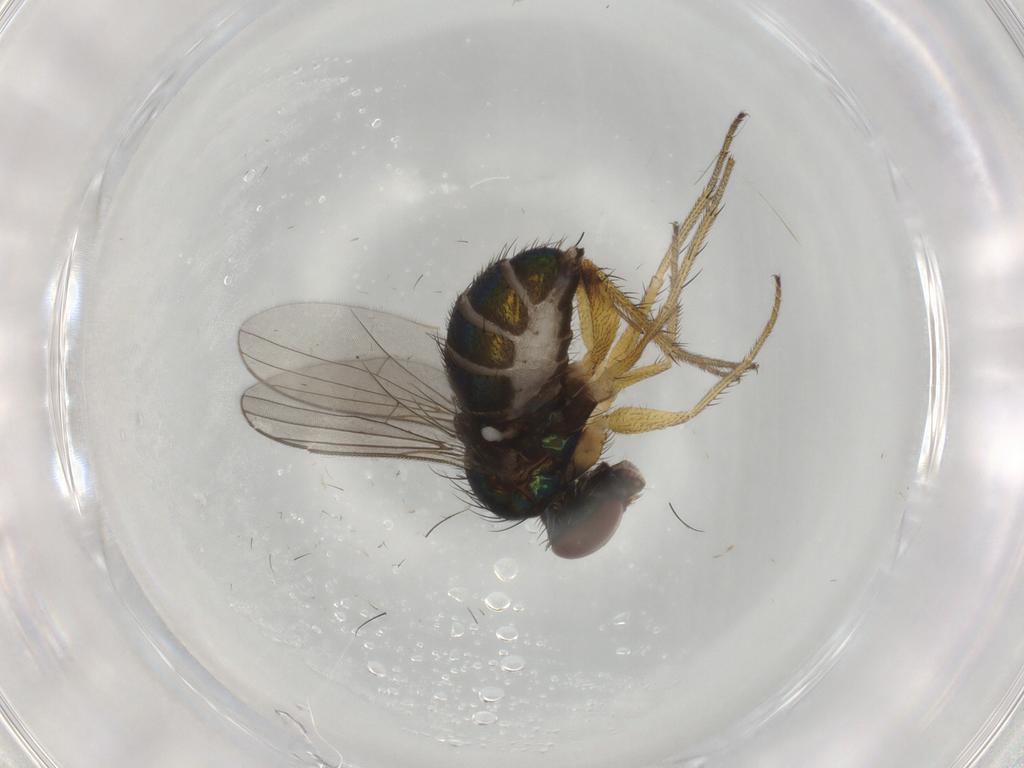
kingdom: Animalia
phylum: Arthropoda
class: Insecta
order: Diptera
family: Dolichopodidae
